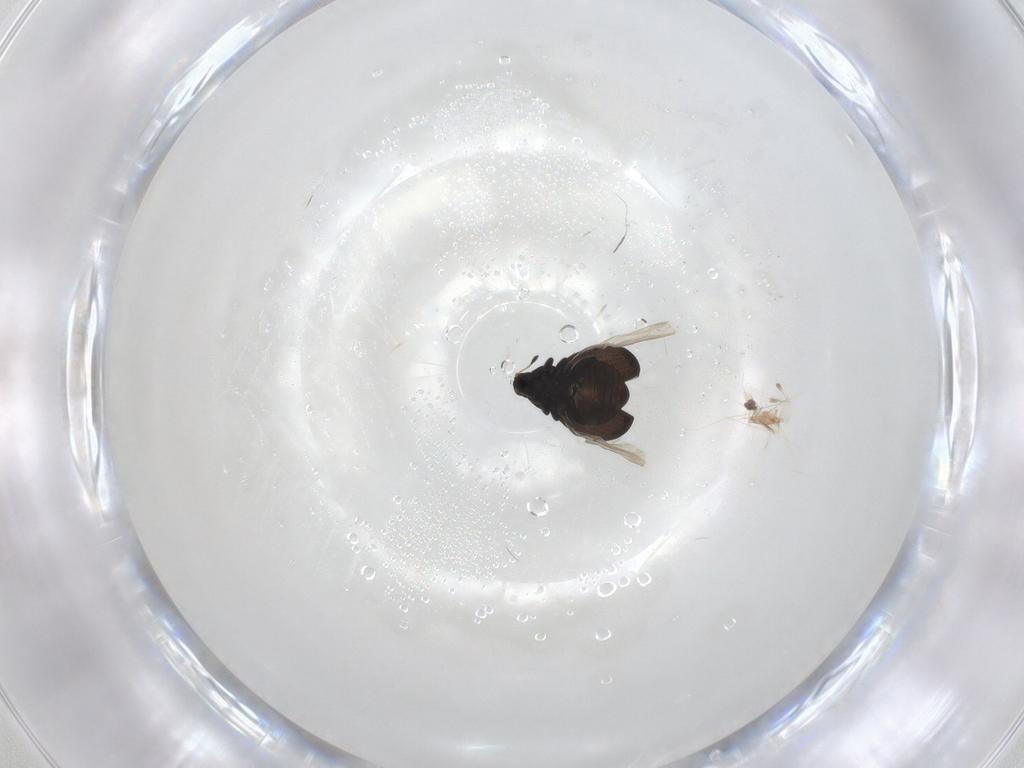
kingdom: Animalia
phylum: Arthropoda
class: Insecta
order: Coleoptera
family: Curculionidae
